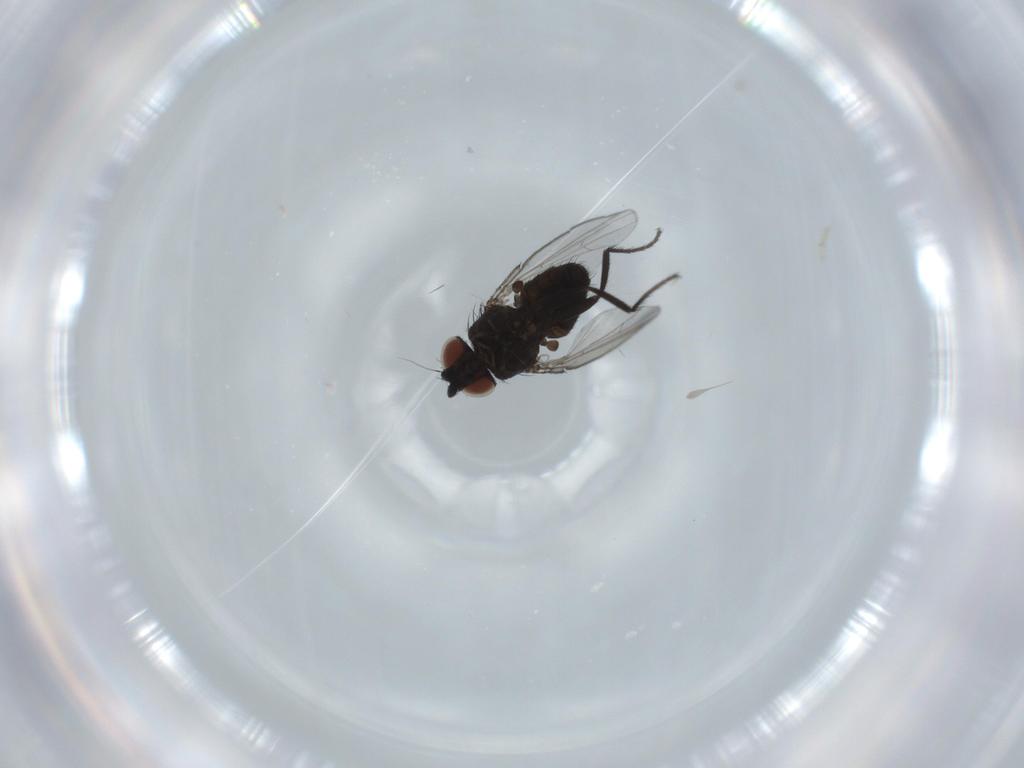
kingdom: Animalia
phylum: Arthropoda
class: Insecta
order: Diptera
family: Milichiidae
